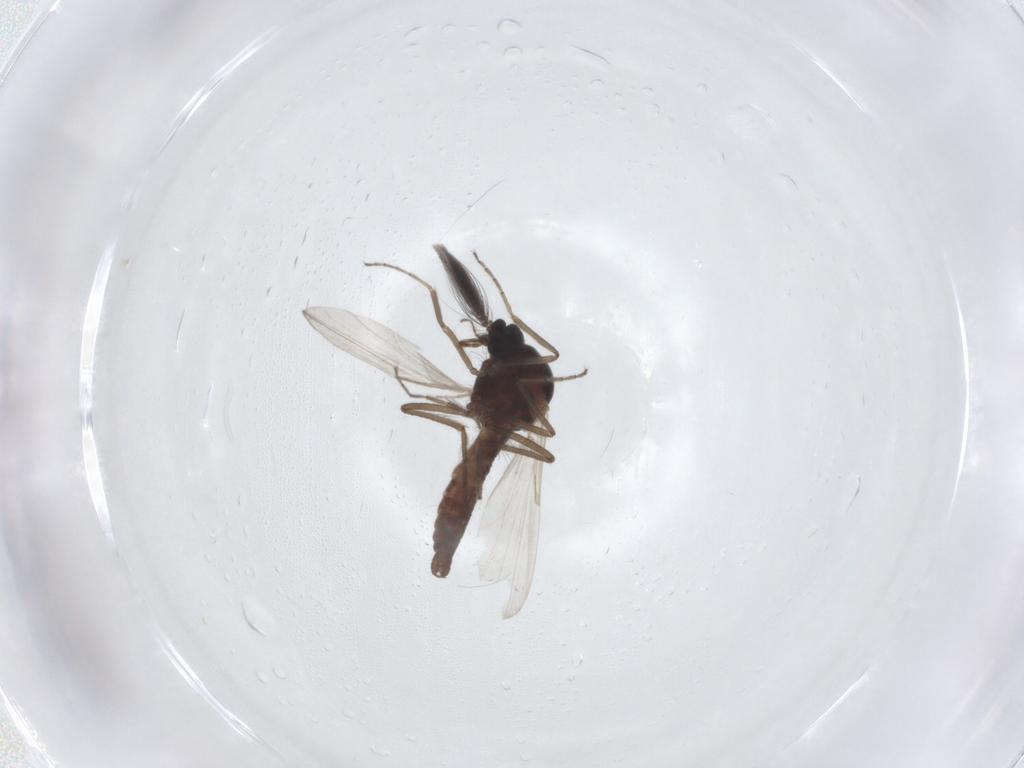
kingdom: Animalia
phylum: Arthropoda
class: Insecta
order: Diptera
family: Ceratopogonidae
